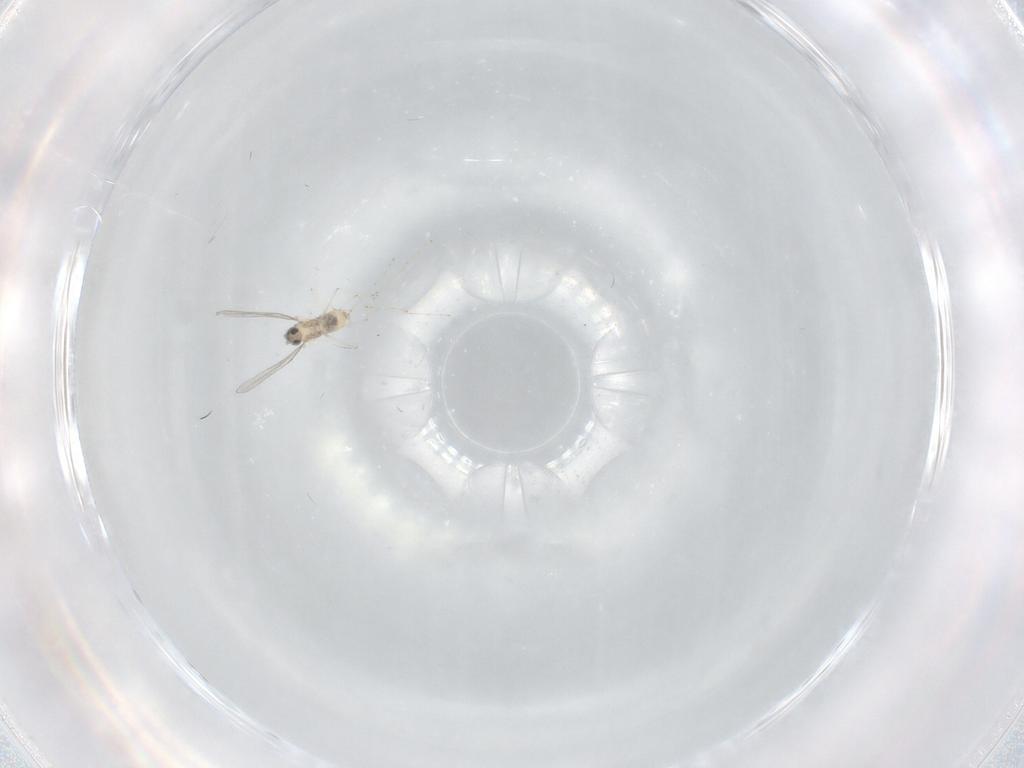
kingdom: Animalia
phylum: Arthropoda
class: Insecta
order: Diptera
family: Cecidomyiidae
